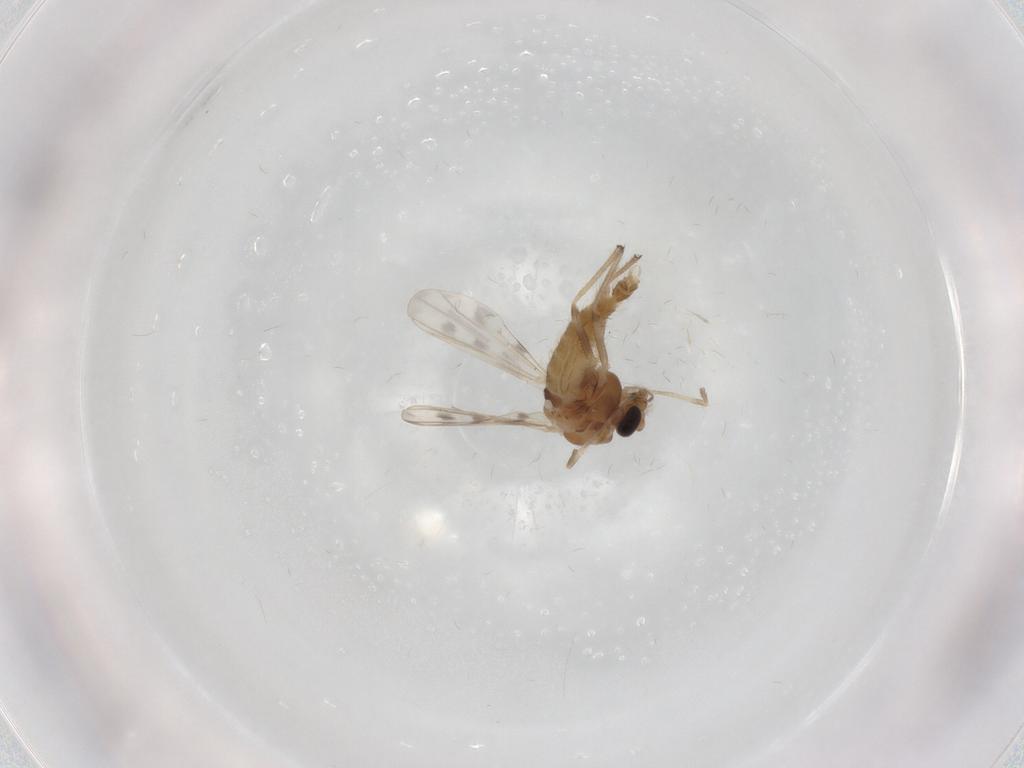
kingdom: Animalia
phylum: Arthropoda
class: Insecta
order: Diptera
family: Chironomidae
